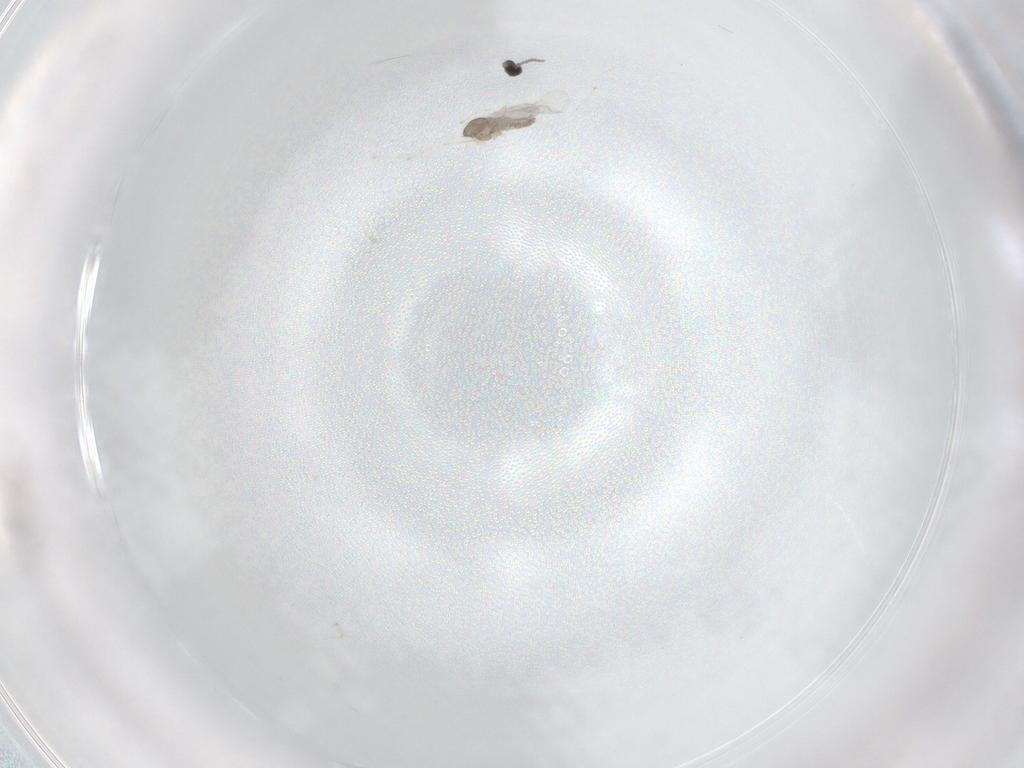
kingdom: Animalia
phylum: Arthropoda
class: Insecta
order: Diptera
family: Cecidomyiidae
